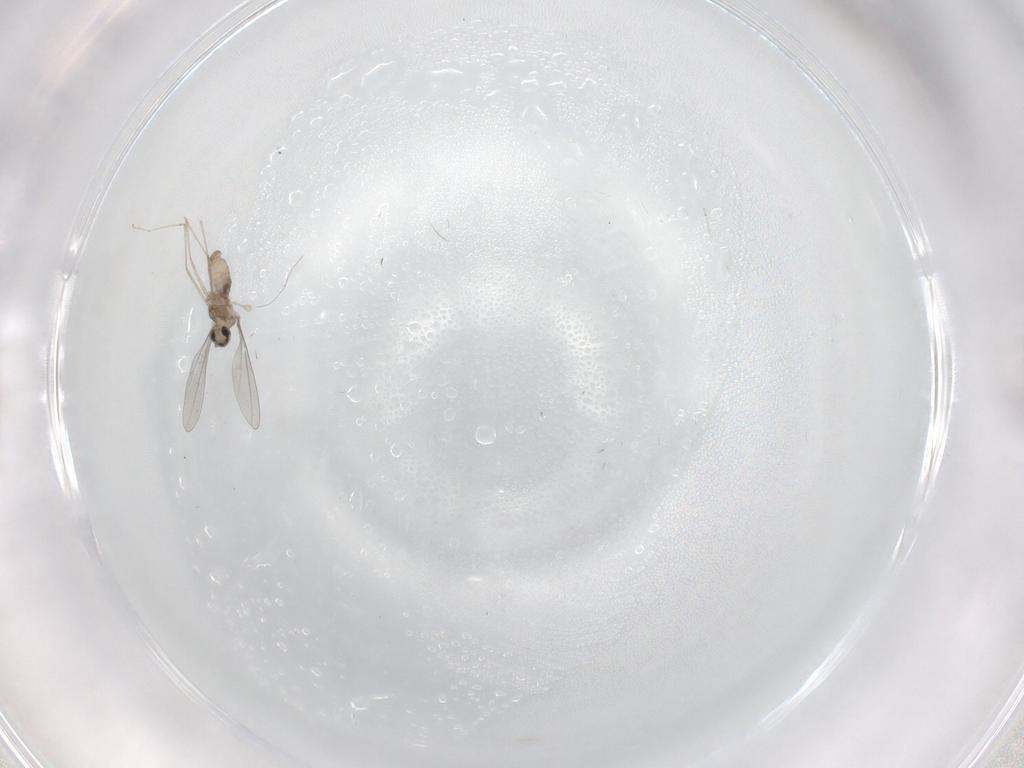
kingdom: Animalia
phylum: Arthropoda
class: Insecta
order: Diptera
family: Cecidomyiidae
